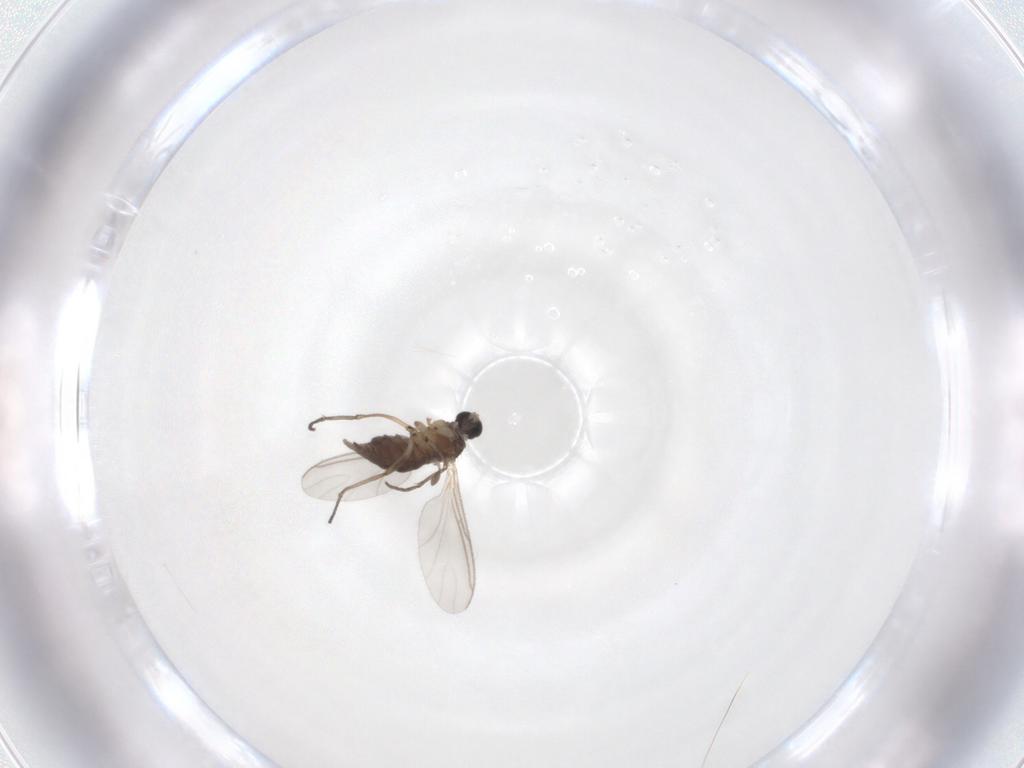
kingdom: Animalia
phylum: Arthropoda
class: Insecta
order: Diptera
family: Sciaridae
